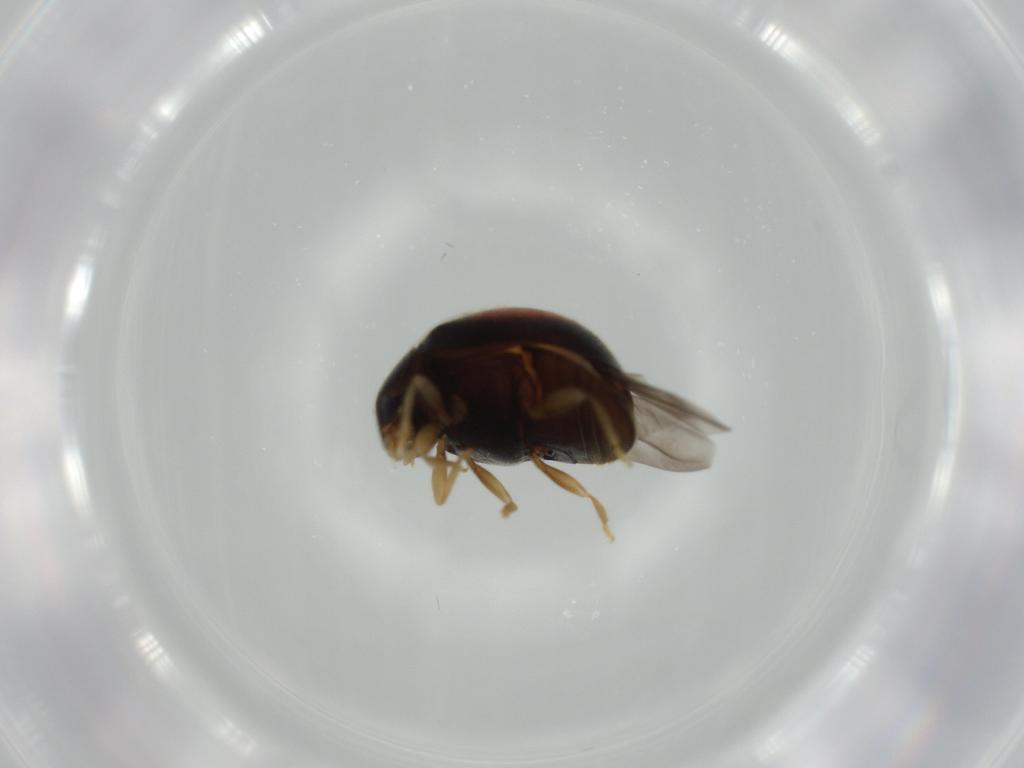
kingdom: Animalia
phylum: Arthropoda
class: Insecta
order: Coleoptera
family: Coccinellidae
